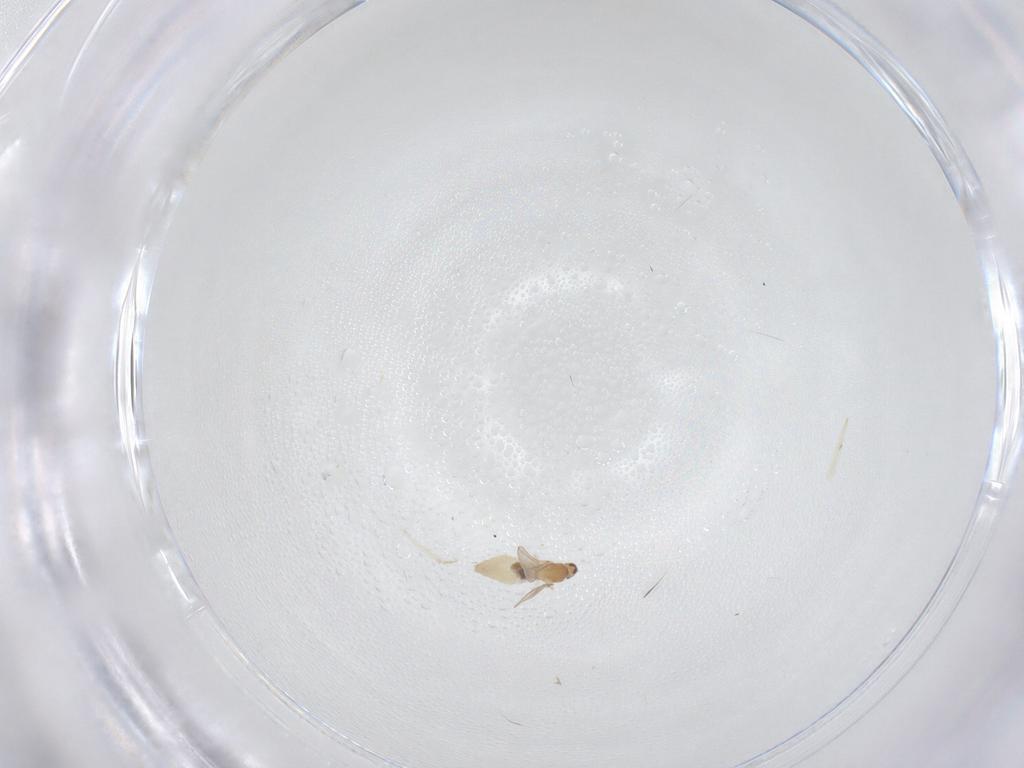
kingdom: Animalia
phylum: Arthropoda
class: Insecta
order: Diptera
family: Cecidomyiidae
